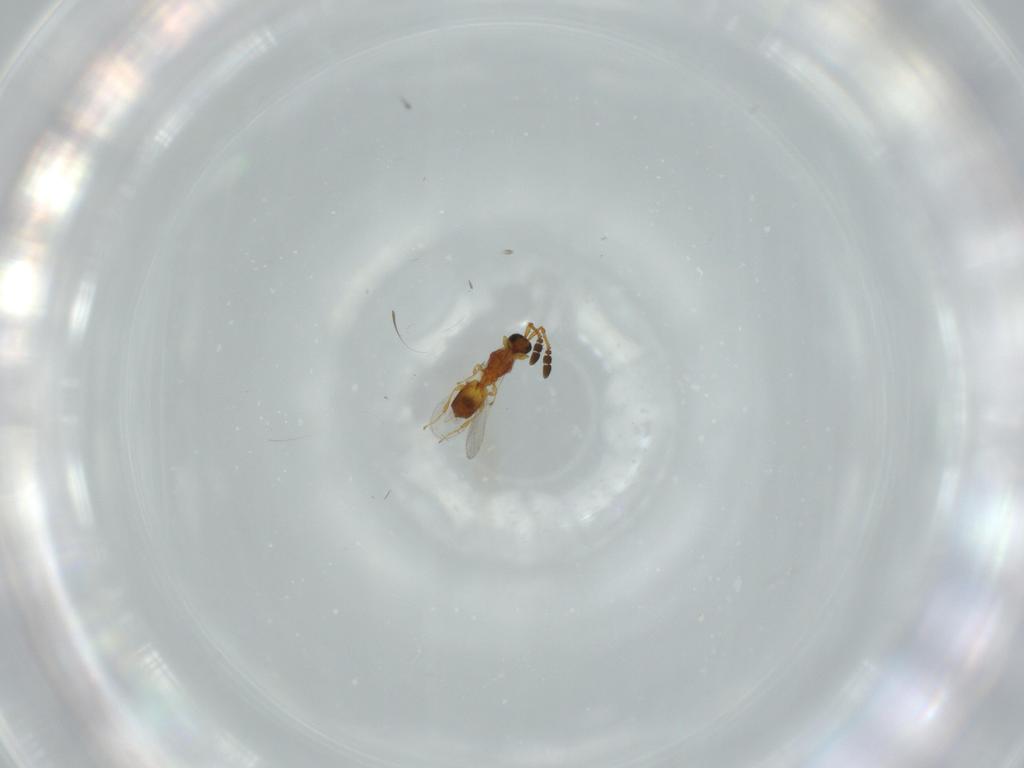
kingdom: Animalia
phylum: Arthropoda
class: Insecta
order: Hymenoptera
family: Diapriidae
